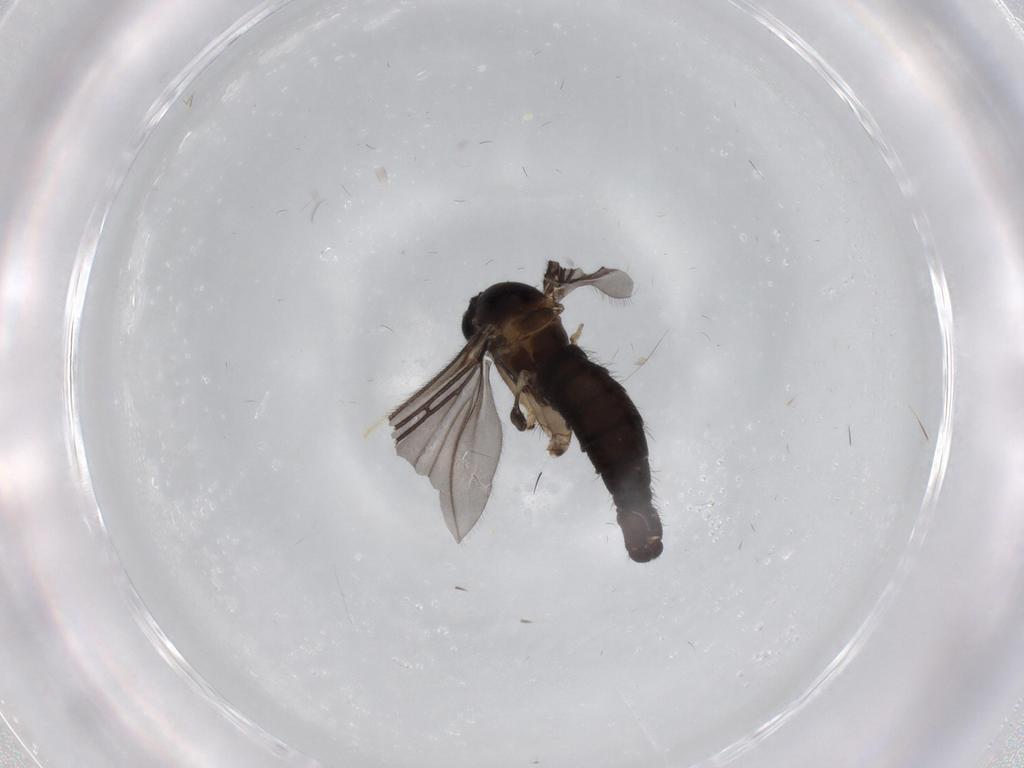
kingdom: Animalia
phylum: Arthropoda
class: Insecta
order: Diptera
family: Sciaridae
